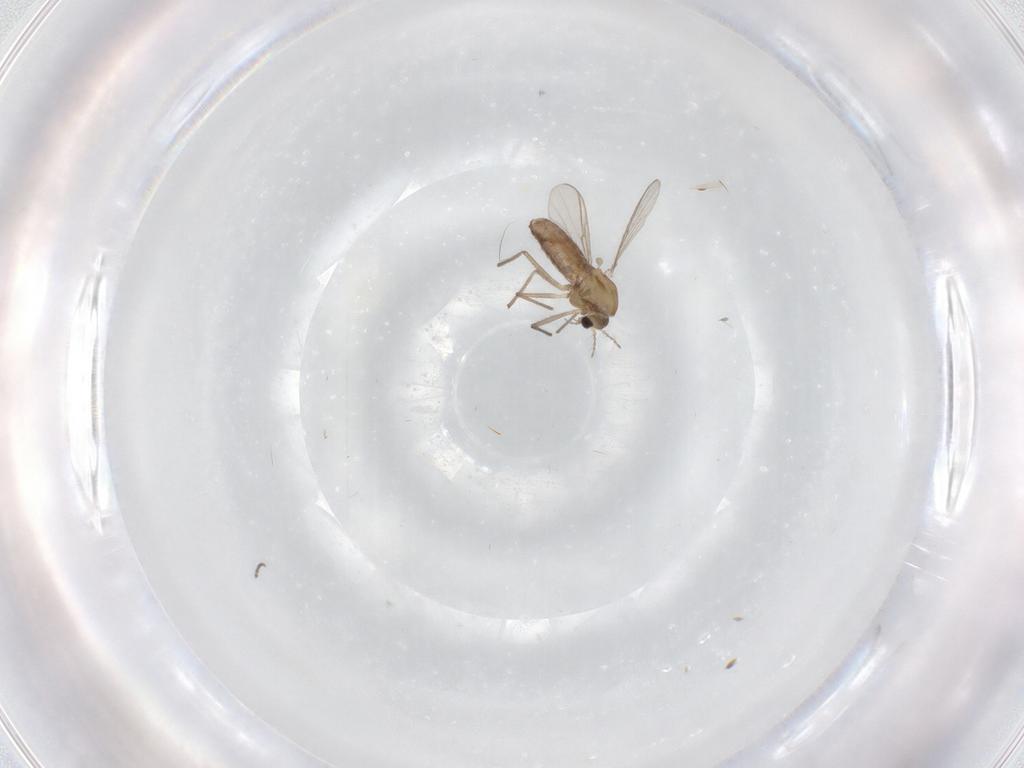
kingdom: Animalia
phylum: Arthropoda
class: Insecta
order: Diptera
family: Chironomidae
